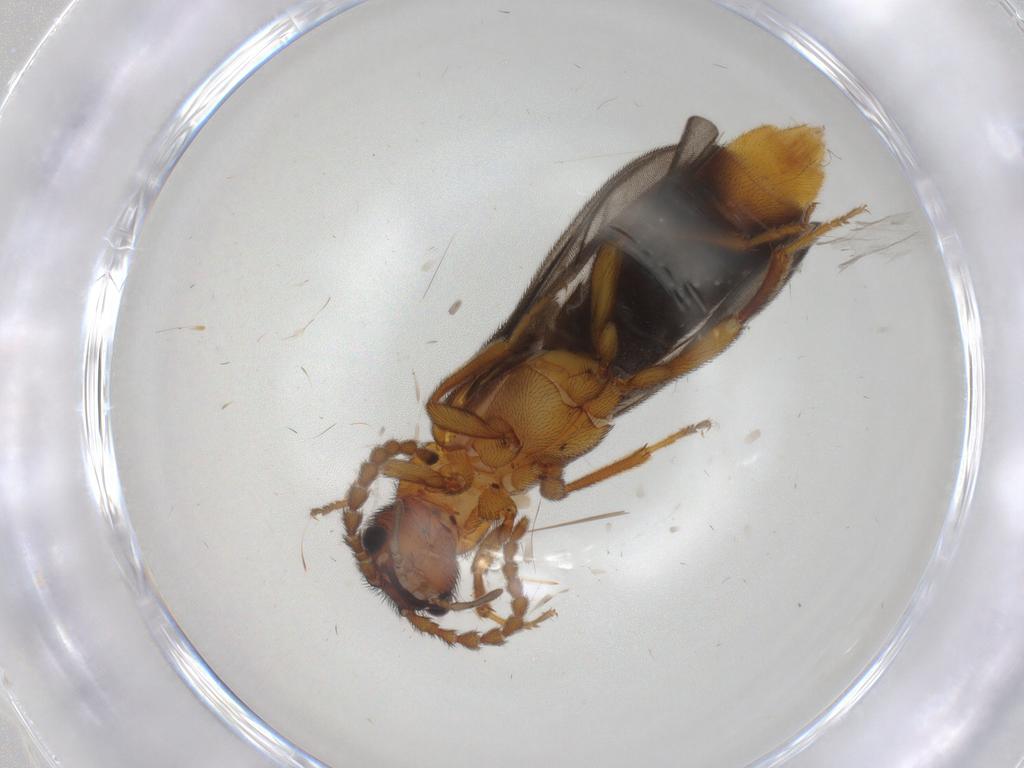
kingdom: Animalia
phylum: Arthropoda
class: Insecta
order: Coleoptera
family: Omethidae
